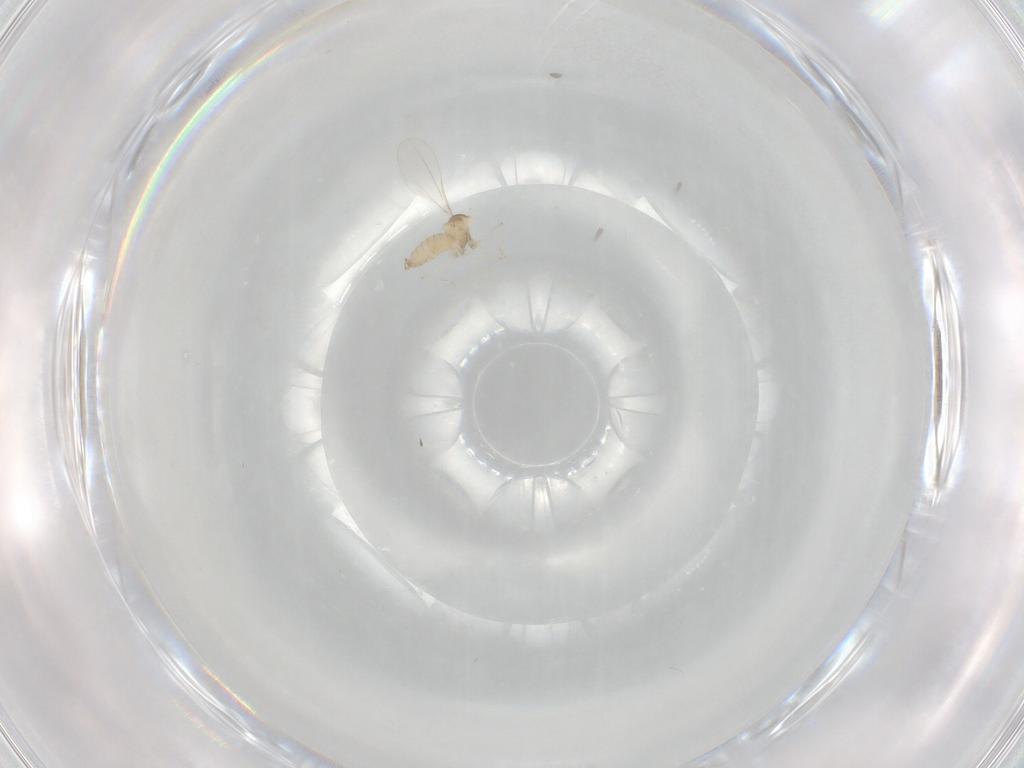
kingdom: Animalia
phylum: Arthropoda
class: Insecta
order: Diptera
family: Cecidomyiidae
